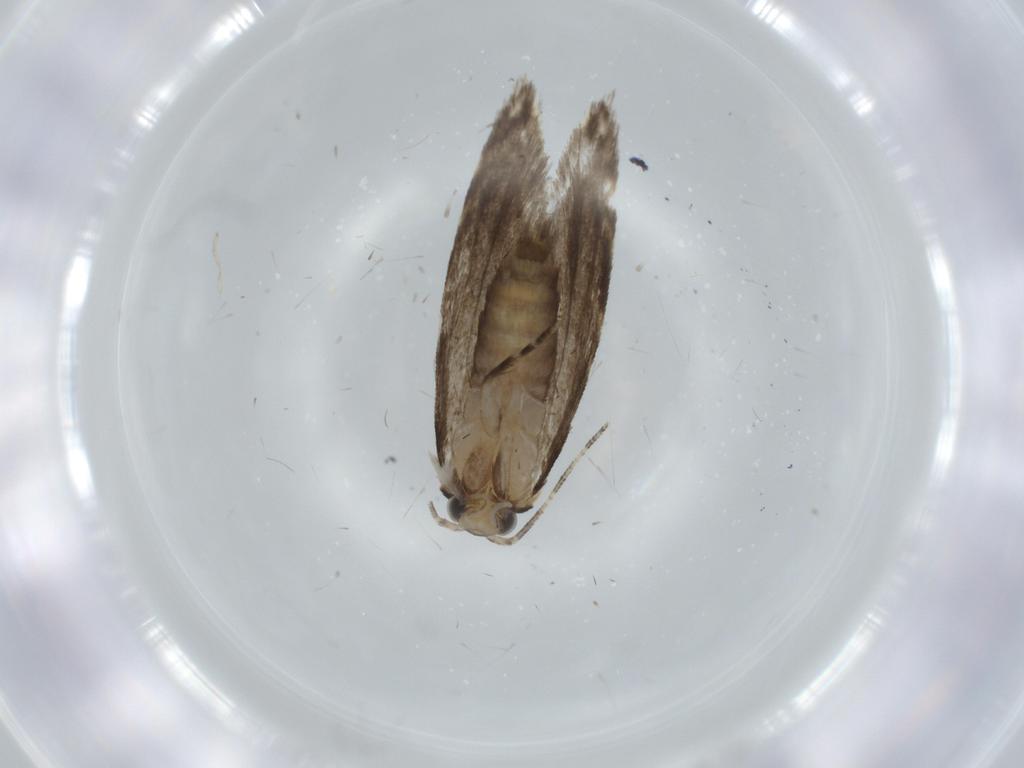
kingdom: Animalia
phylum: Arthropoda
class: Insecta
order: Lepidoptera
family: Tineidae
